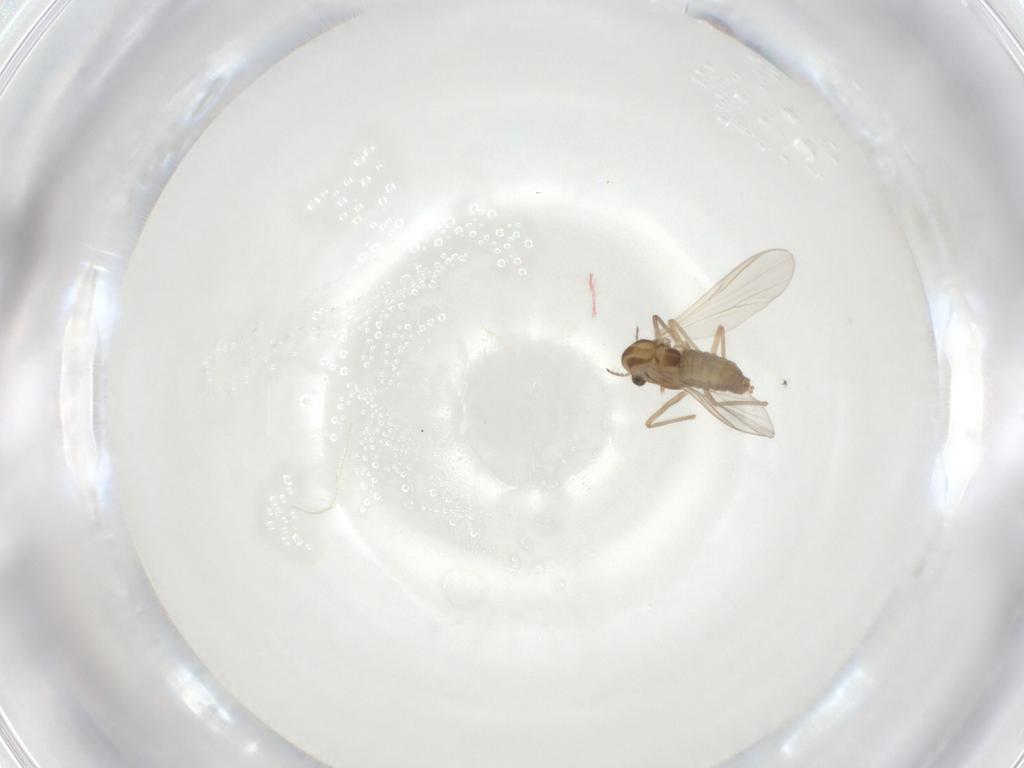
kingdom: Animalia
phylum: Arthropoda
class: Insecta
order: Diptera
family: Chironomidae
